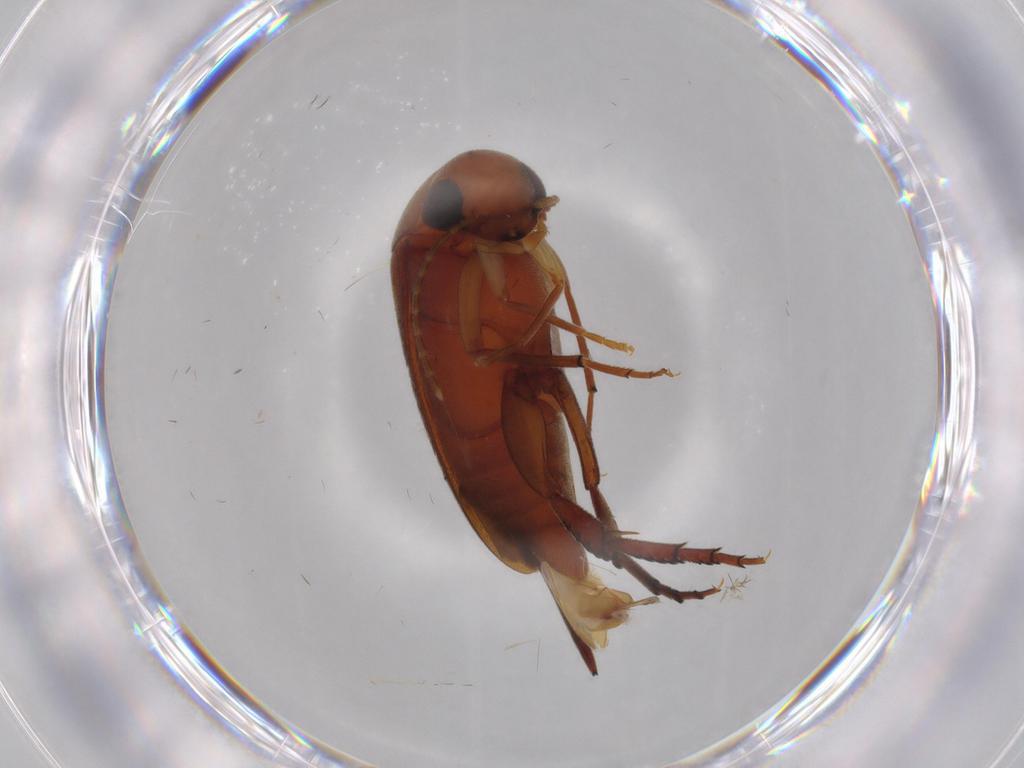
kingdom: Animalia
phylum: Arthropoda
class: Insecta
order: Coleoptera
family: Mordellidae
